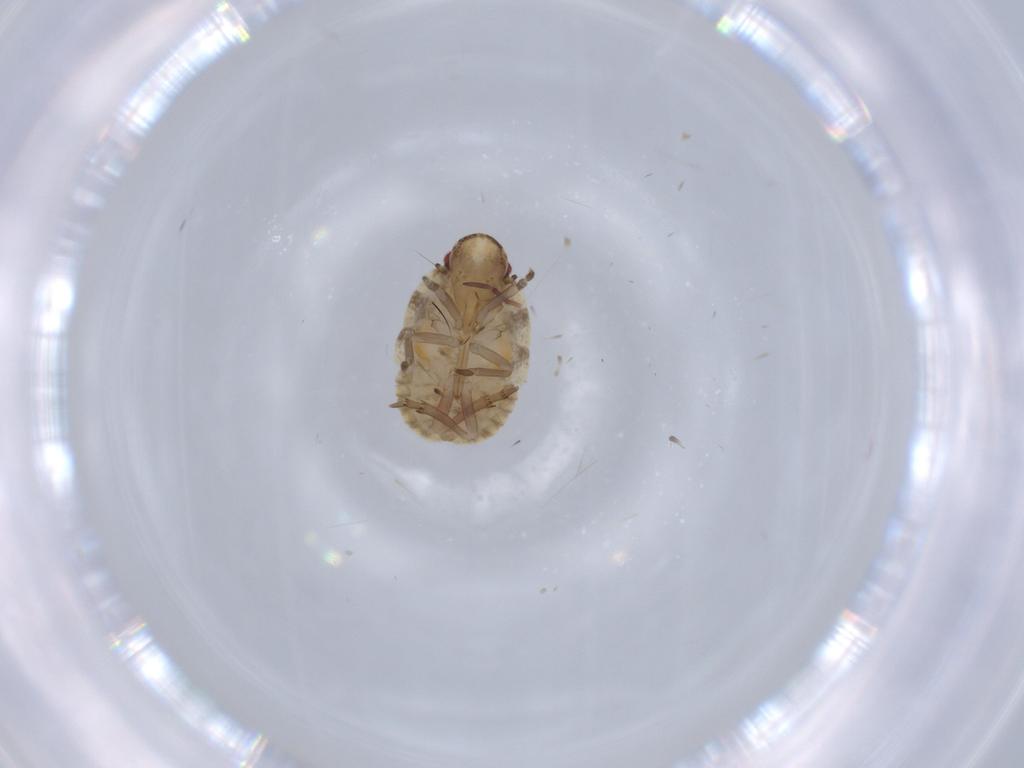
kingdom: Animalia
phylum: Arthropoda
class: Insecta
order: Hemiptera
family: Flatidae
